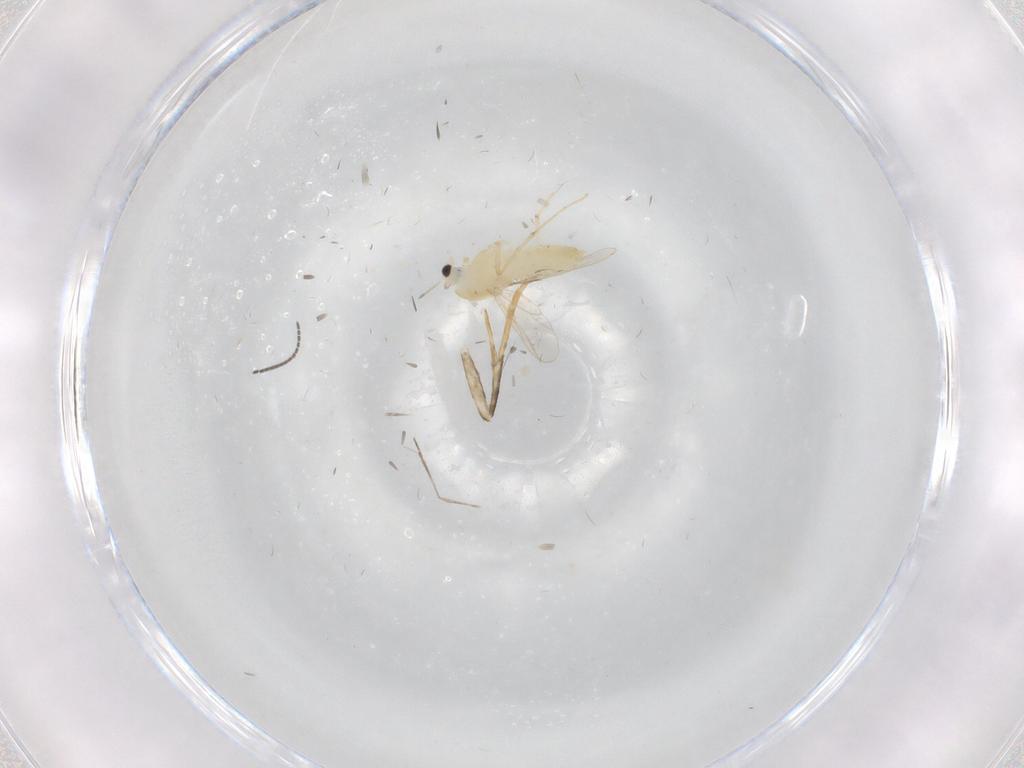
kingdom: Animalia
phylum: Arthropoda
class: Insecta
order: Diptera
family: Chironomidae
